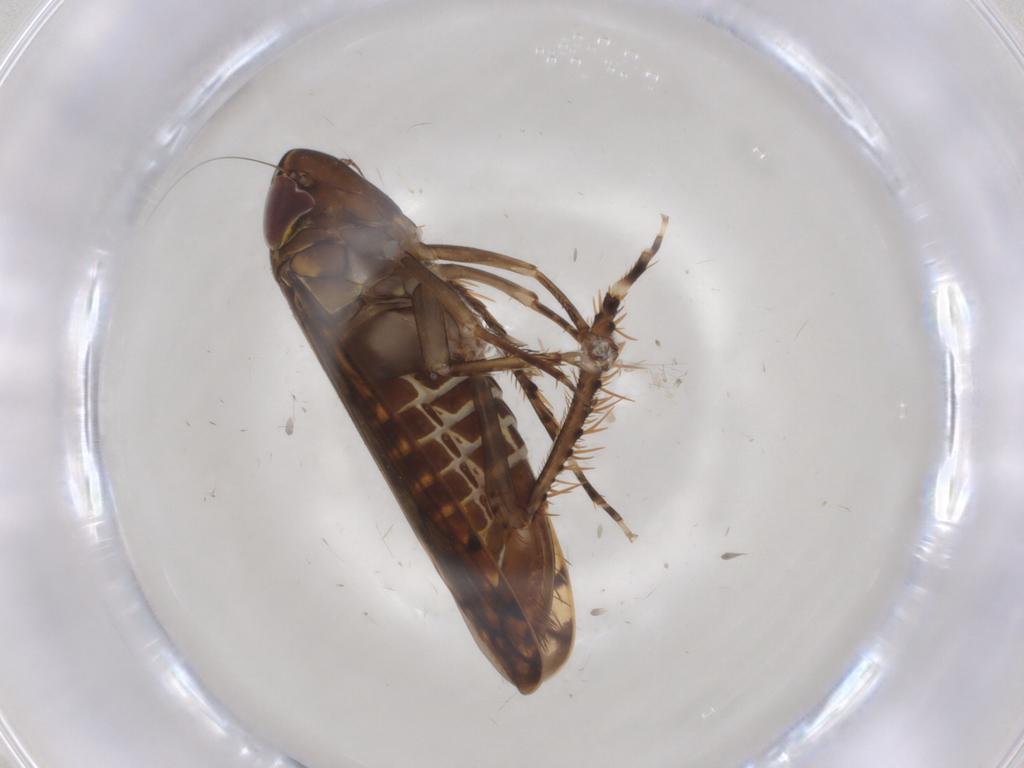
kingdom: Animalia
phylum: Arthropoda
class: Insecta
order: Hemiptera
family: Cicadellidae
